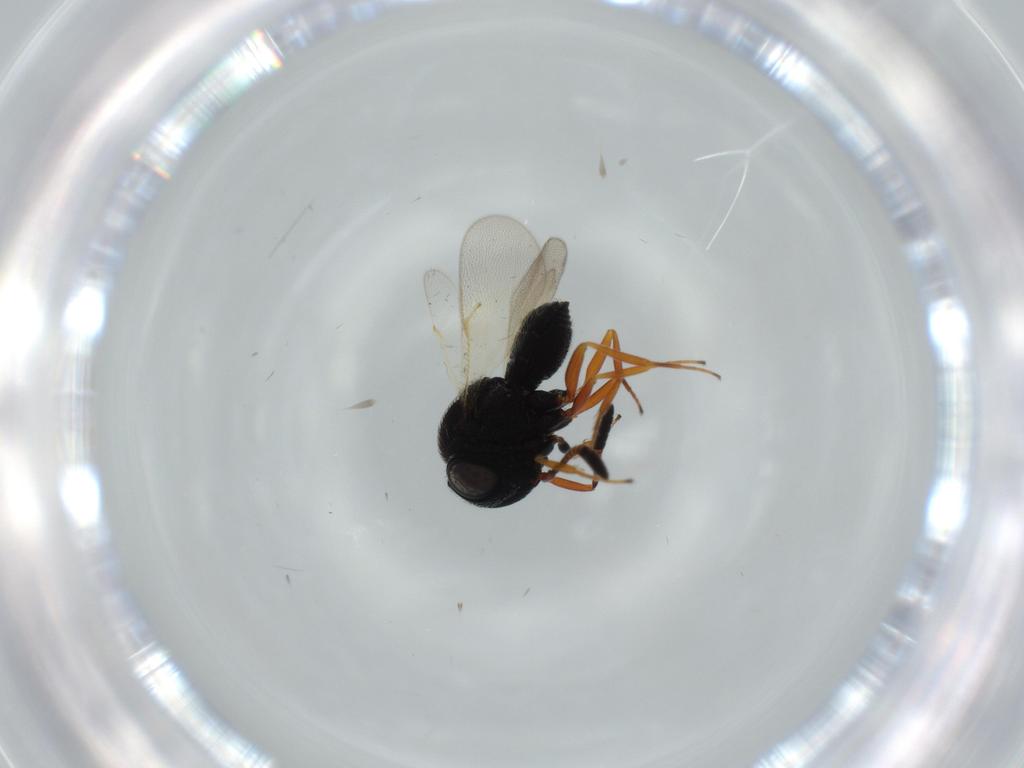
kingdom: Animalia
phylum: Arthropoda
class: Insecta
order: Hymenoptera
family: Scelionidae
